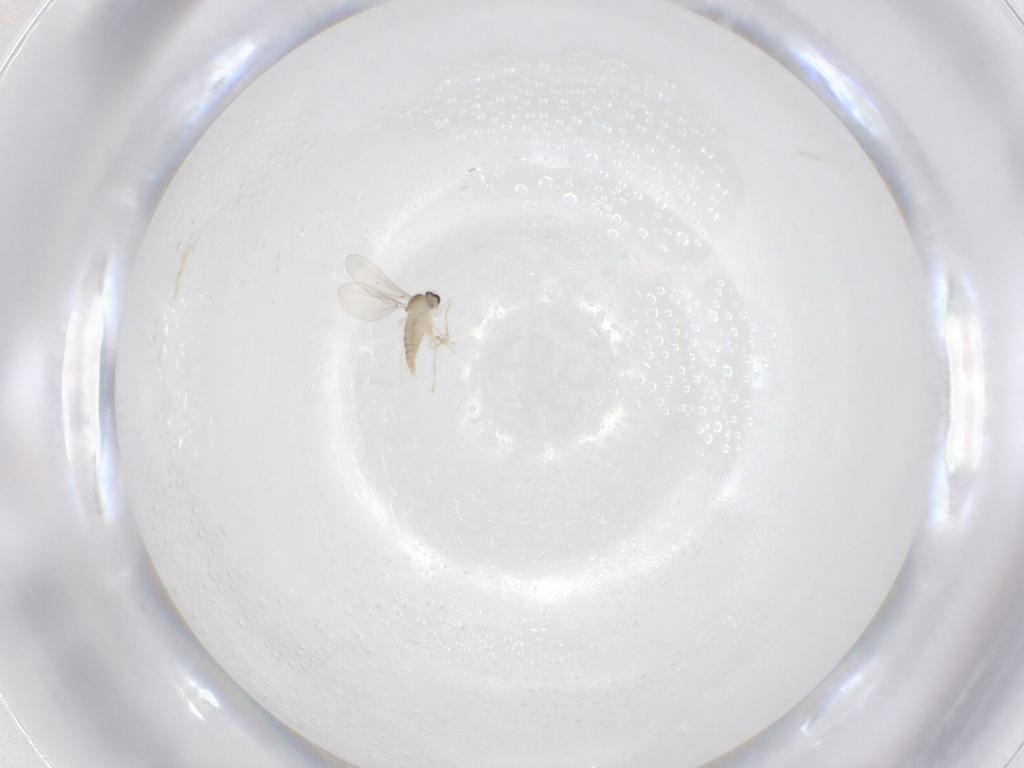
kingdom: Animalia
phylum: Arthropoda
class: Insecta
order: Diptera
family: Cecidomyiidae
